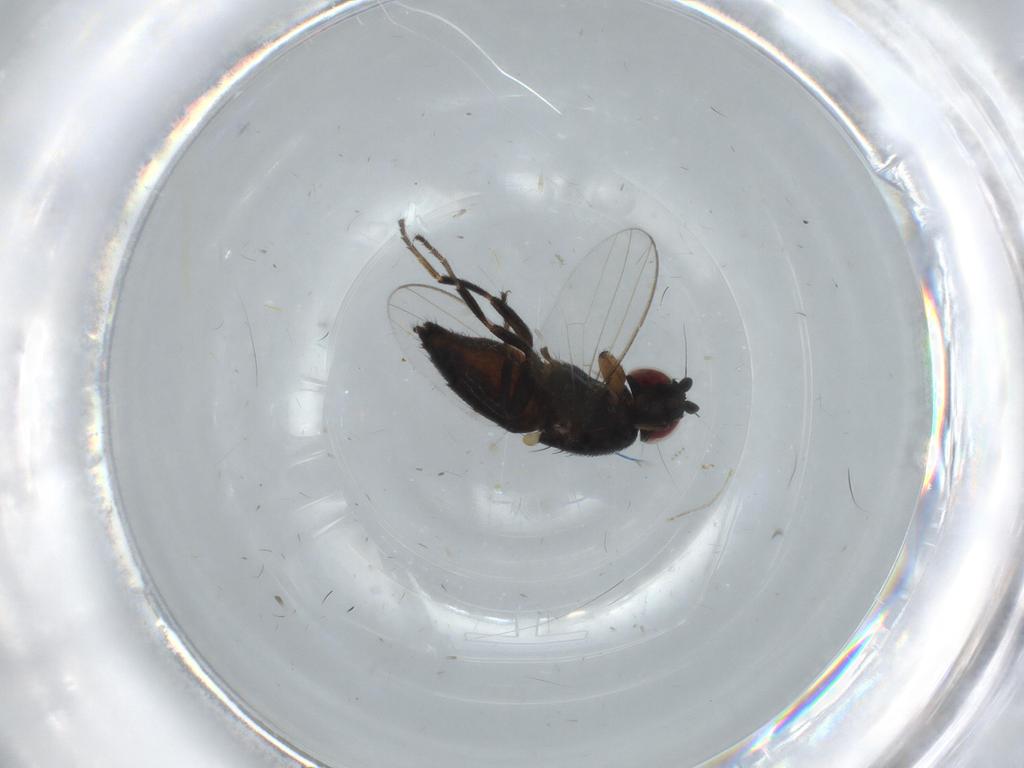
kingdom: Animalia
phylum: Arthropoda
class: Insecta
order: Diptera
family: Milichiidae
